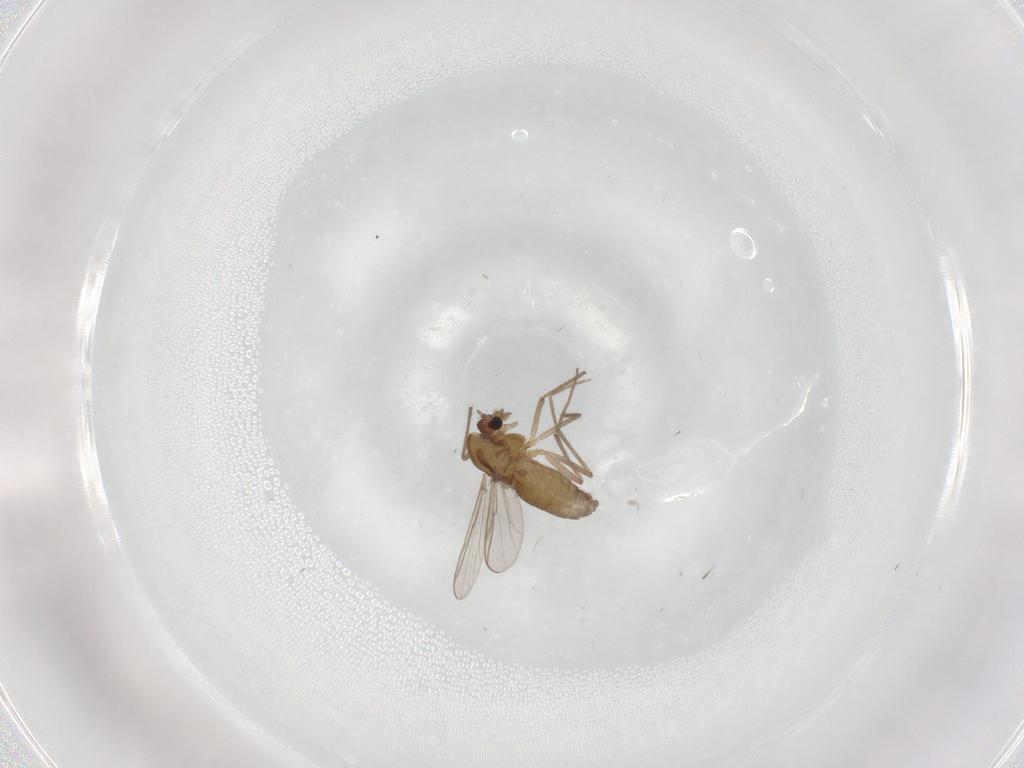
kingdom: Animalia
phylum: Arthropoda
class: Insecta
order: Diptera
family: Chironomidae
